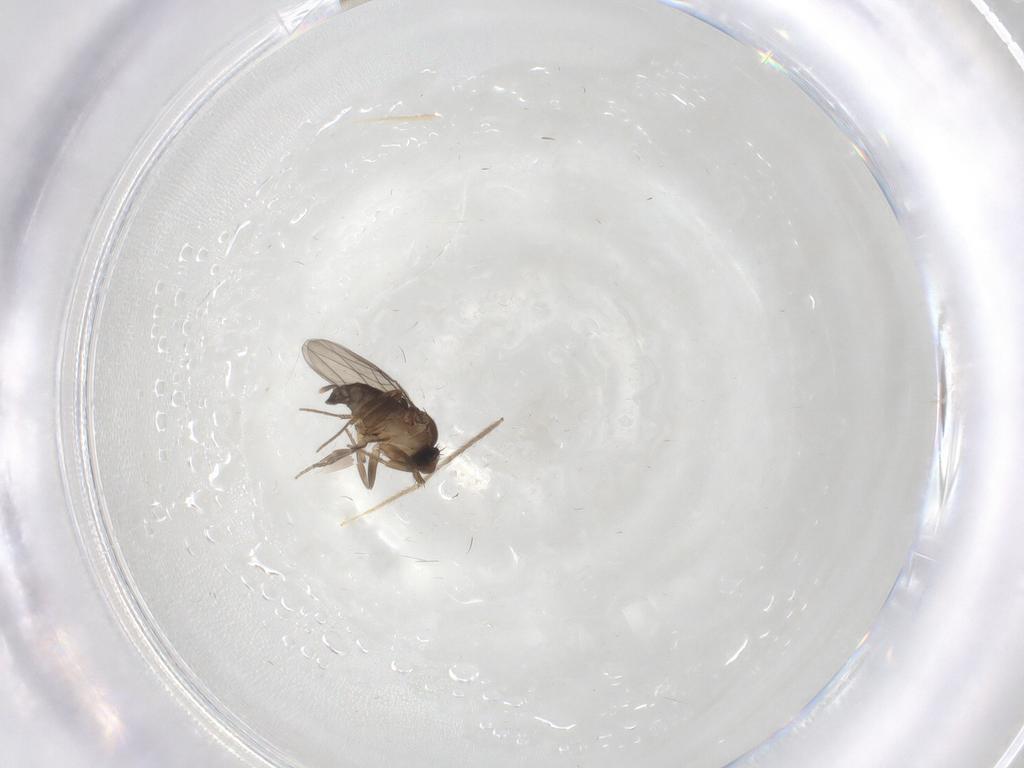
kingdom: Animalia
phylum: Arthropoda
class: Insecta
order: Diptera
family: Phoridae
